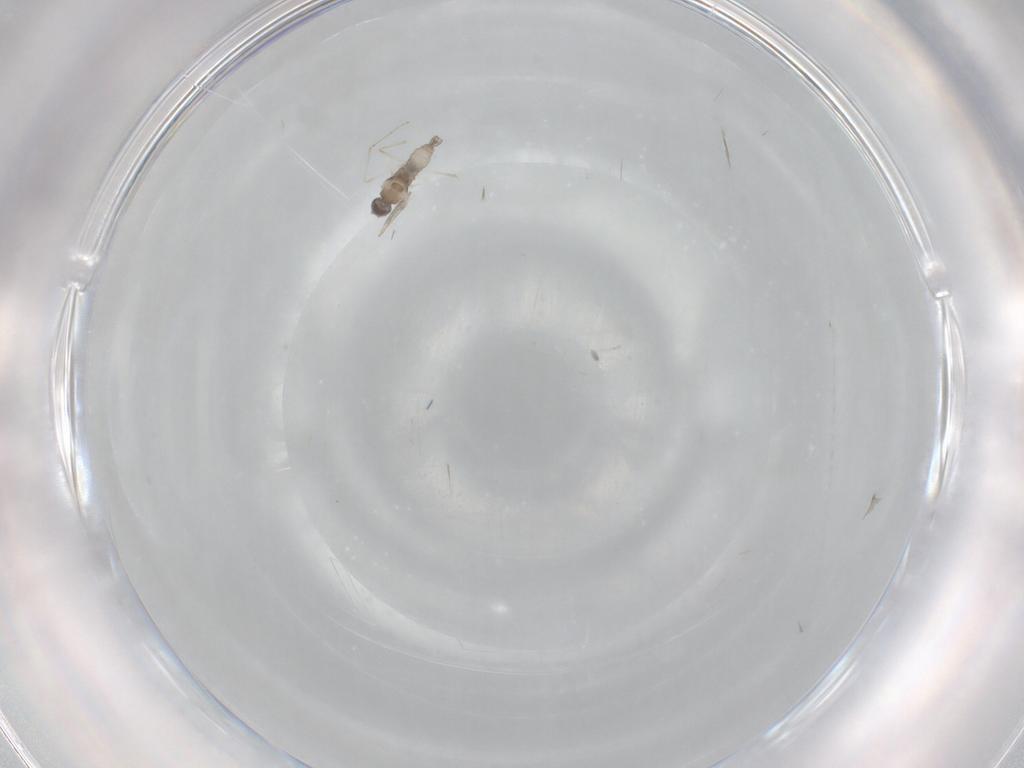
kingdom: Animalia
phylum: Arthropoda
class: Insecta
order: Diptera
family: Cecidomyiidae
